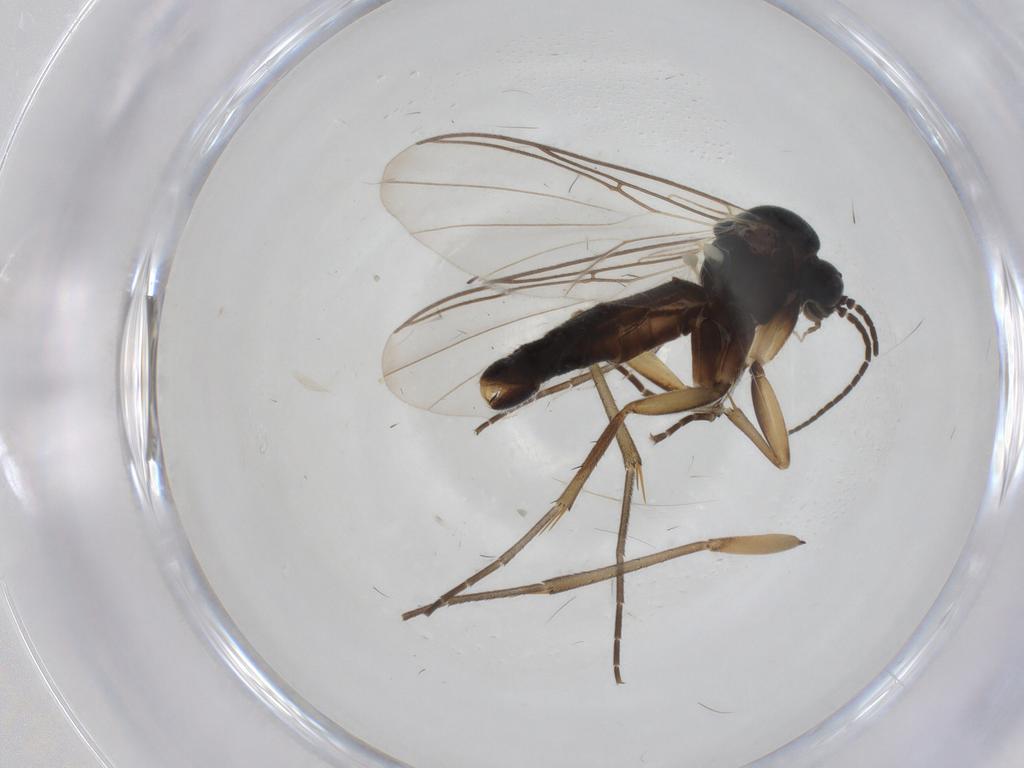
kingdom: Animalia
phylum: Arthropoda
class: Insecta
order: Diptera
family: Mycetophilidae
